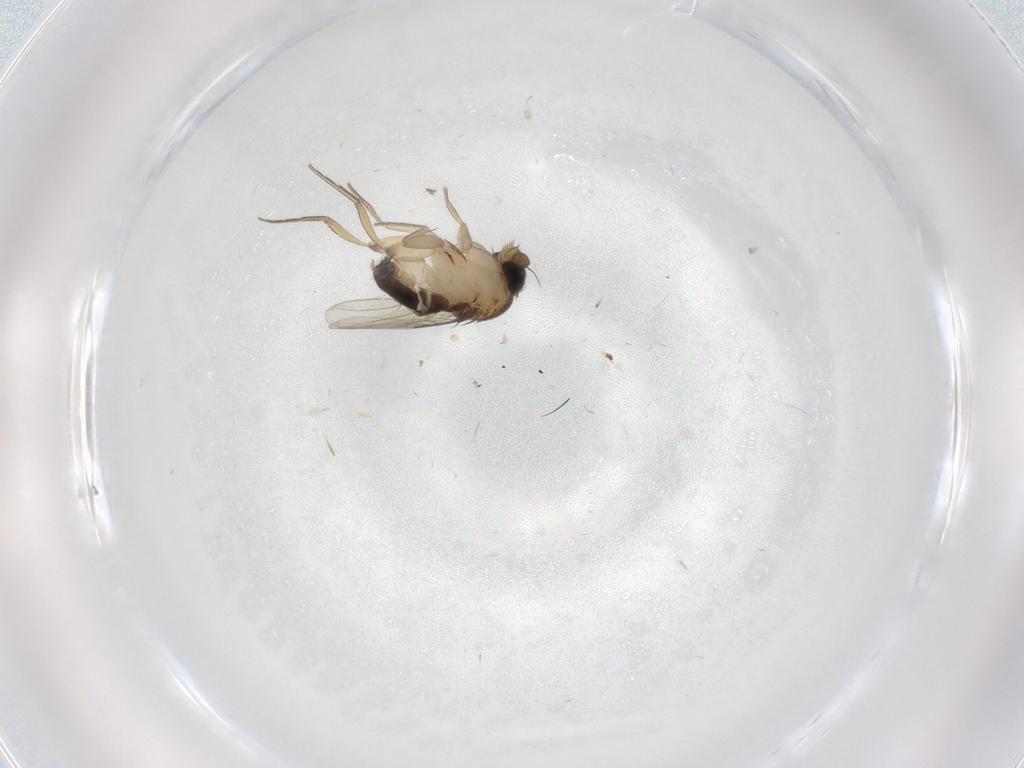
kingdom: Animalia
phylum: Arthropoda
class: Insecta
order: Diptera
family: Phoridae
